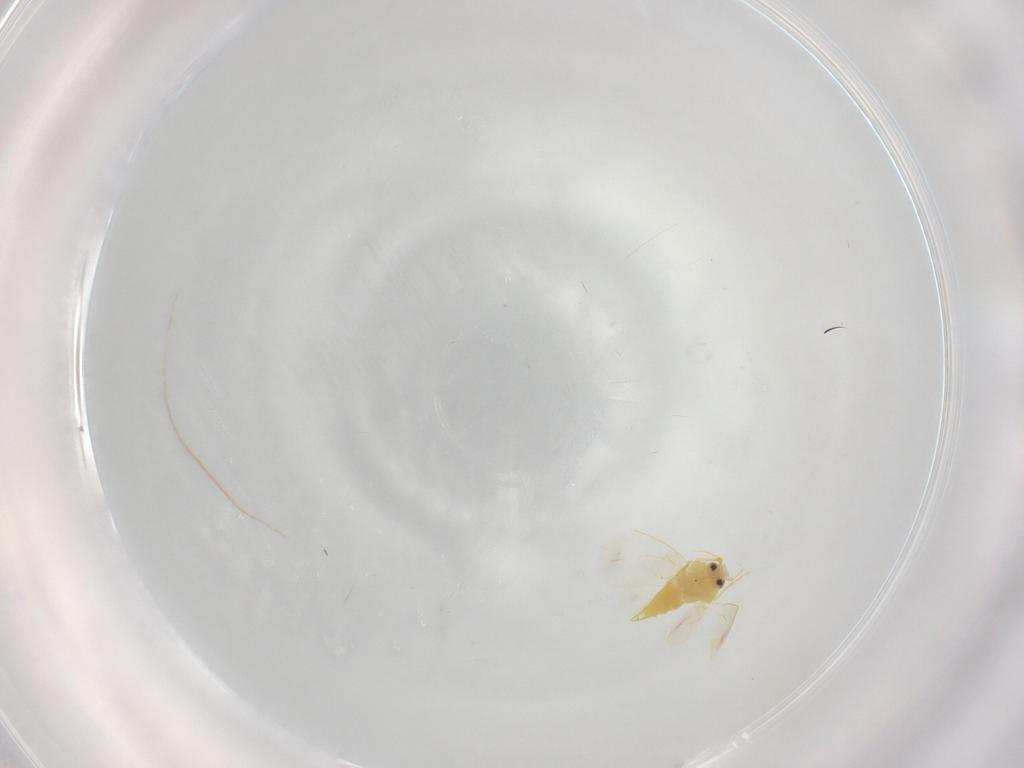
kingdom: Animalia
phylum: Arthropoda
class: Insecta
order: Hemiptera
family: Aleyrodidae
